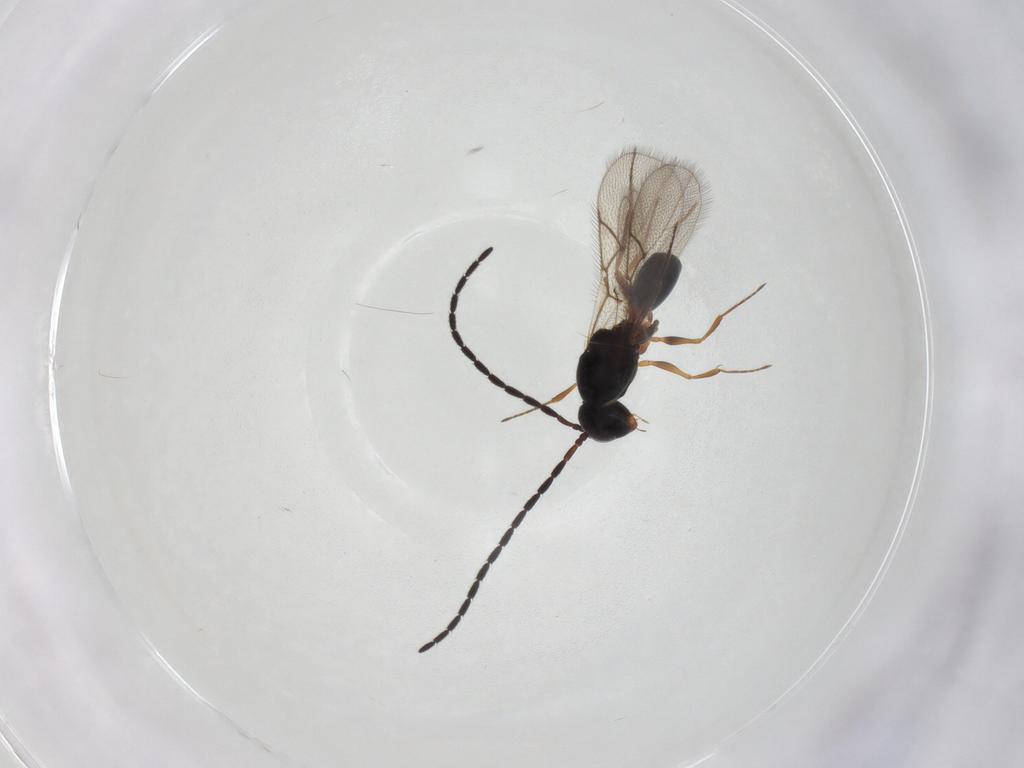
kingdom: Animalia
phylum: Arthropoda
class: Insecta
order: Hymenoptera
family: Figitidae
